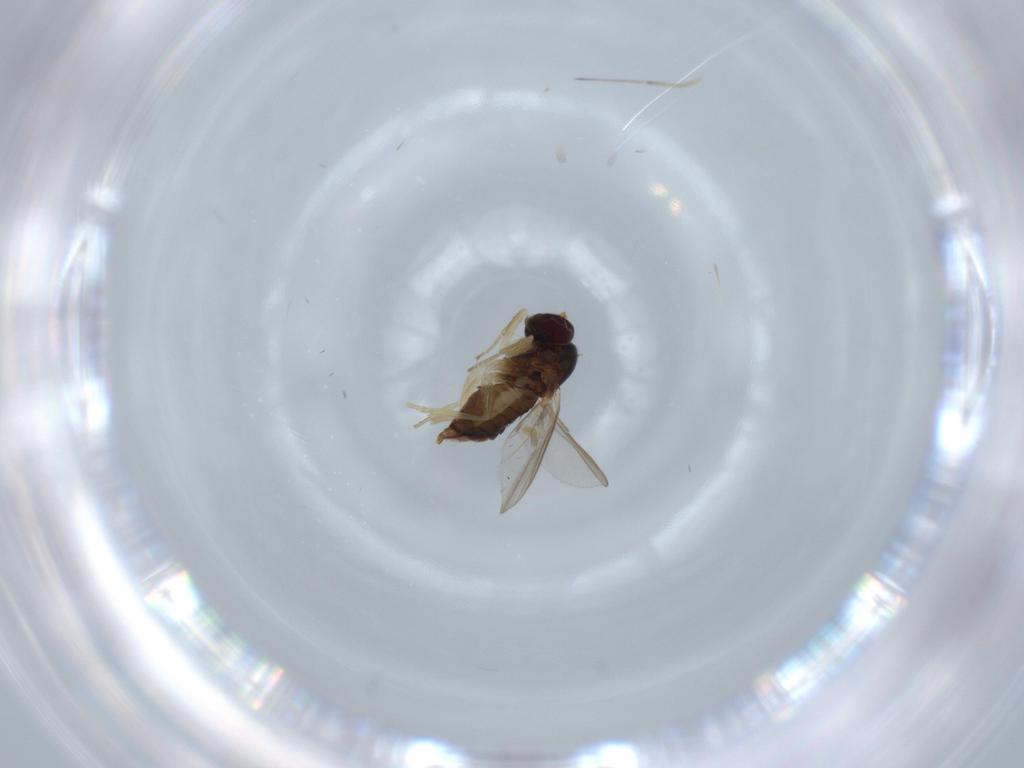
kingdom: Animalia
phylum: Arthropoda
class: Insecta
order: Diptera
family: Dolichopodidae
